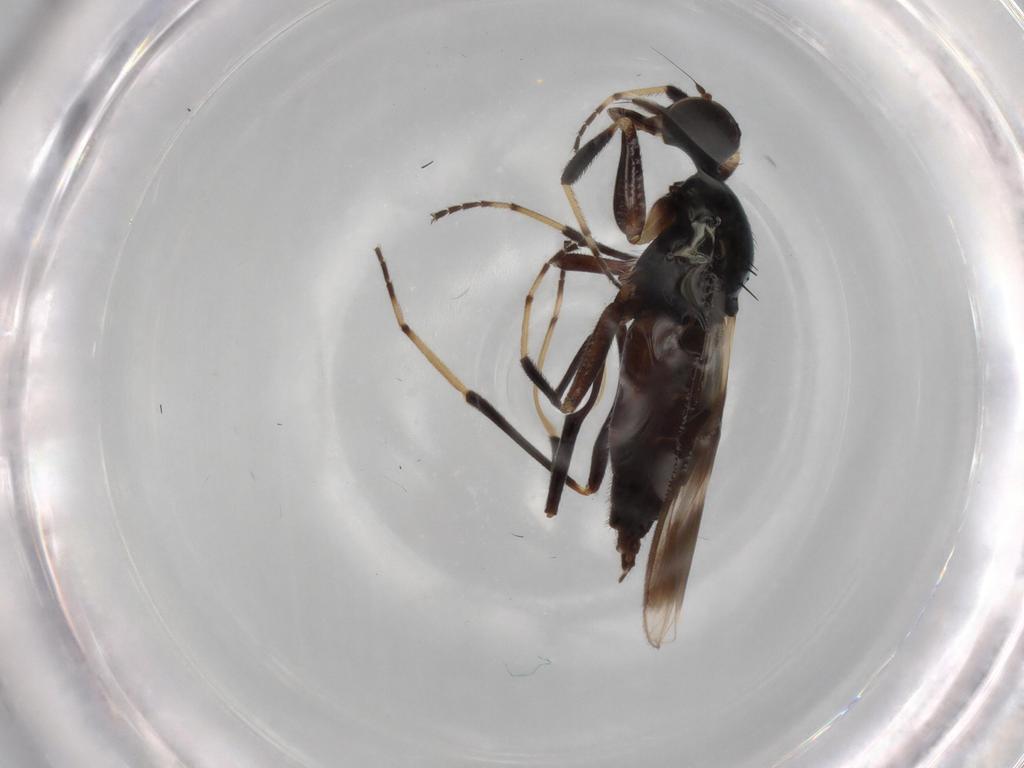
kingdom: Animalia
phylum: Arthropoda
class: Insecta
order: Diptera
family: Hybotidae
